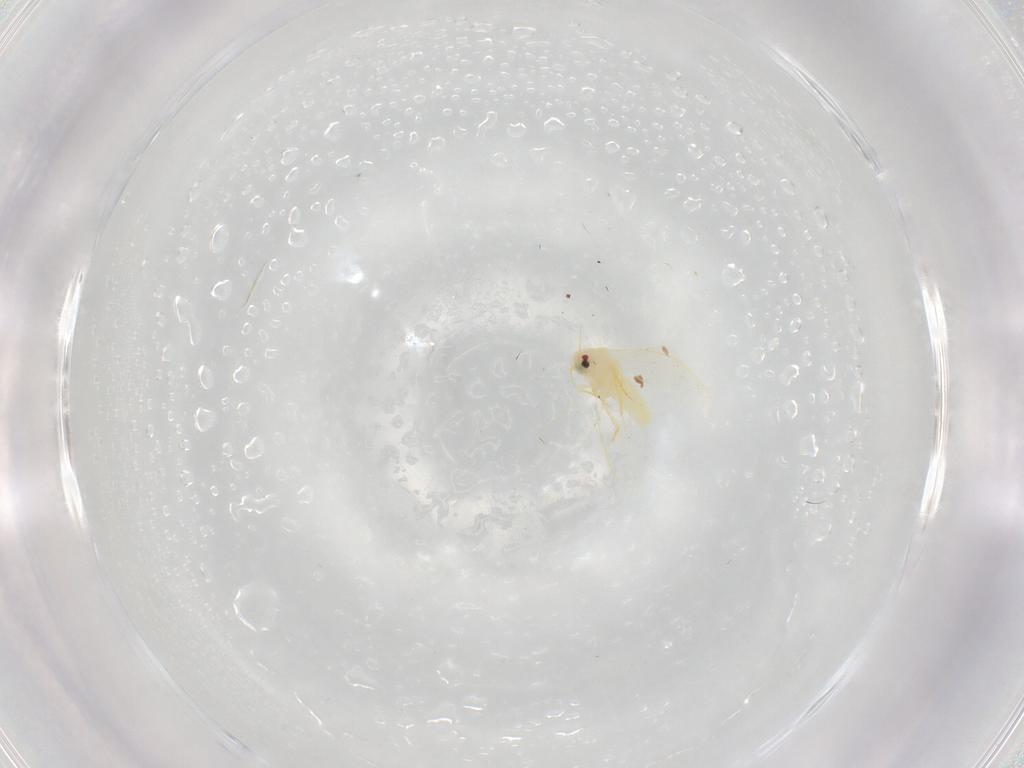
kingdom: Animalia
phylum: Arthropoda
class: Insecta
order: Hemiptera
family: Aleyrodidae
